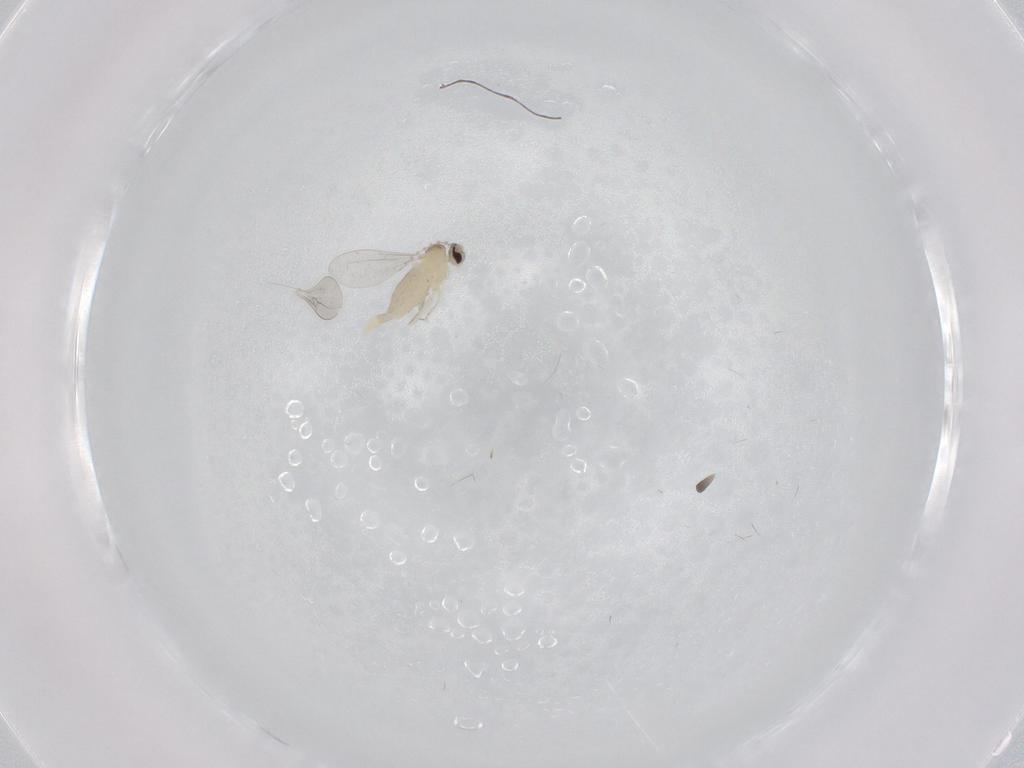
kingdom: Animalia
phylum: Arthropoda
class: Insecta
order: Diptera
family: Cecidomyiidae
